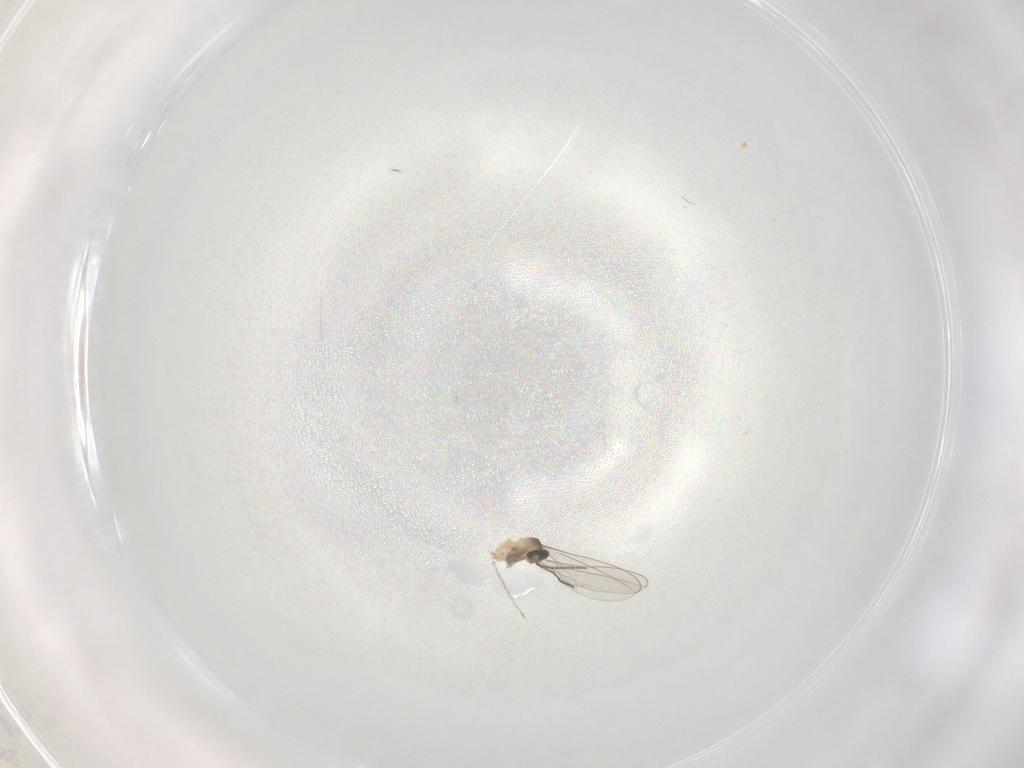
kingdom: Animalia
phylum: Arthropoda
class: Insecta
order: Diptera
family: Cecidomyiidae
